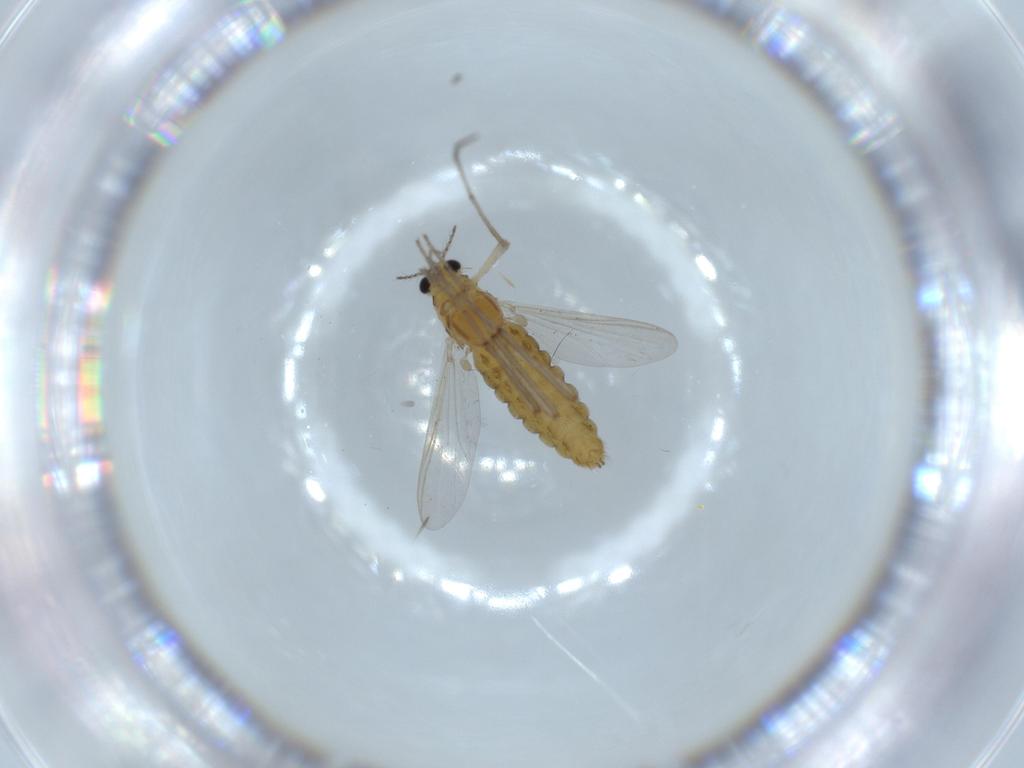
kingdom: Animalia
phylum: Arthropoda
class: Insecta
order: Diptera
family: Chironomidae
